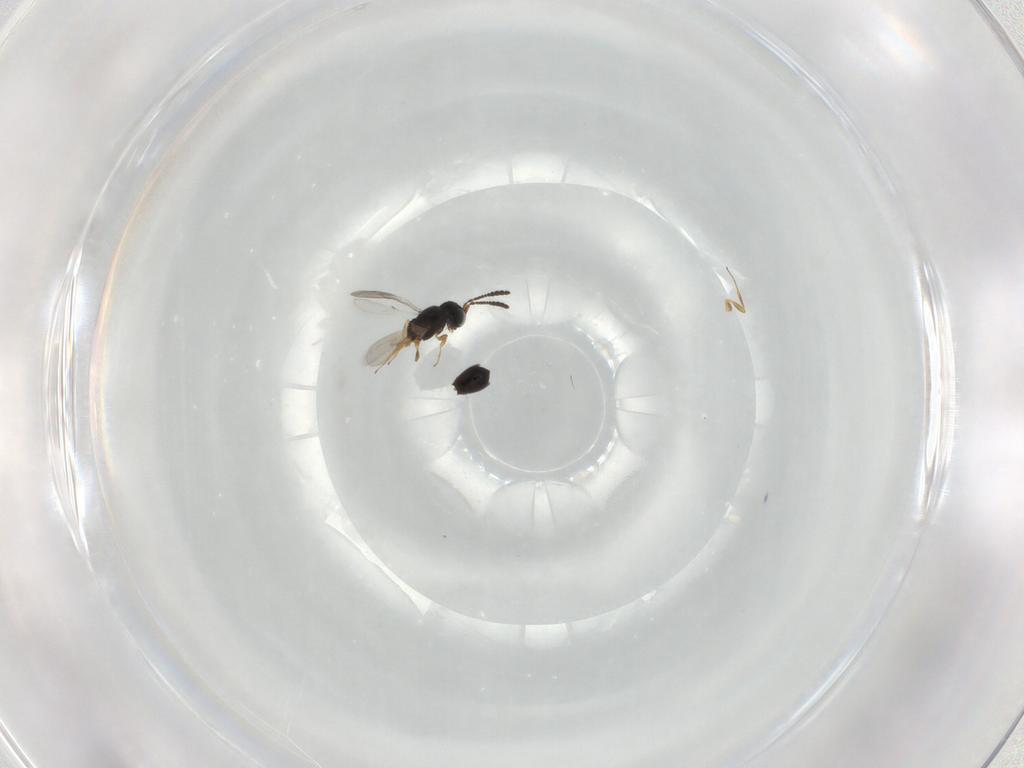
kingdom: Animalia
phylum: Arthropoda
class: Insecta
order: Hymenoptera
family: Scelionidae
